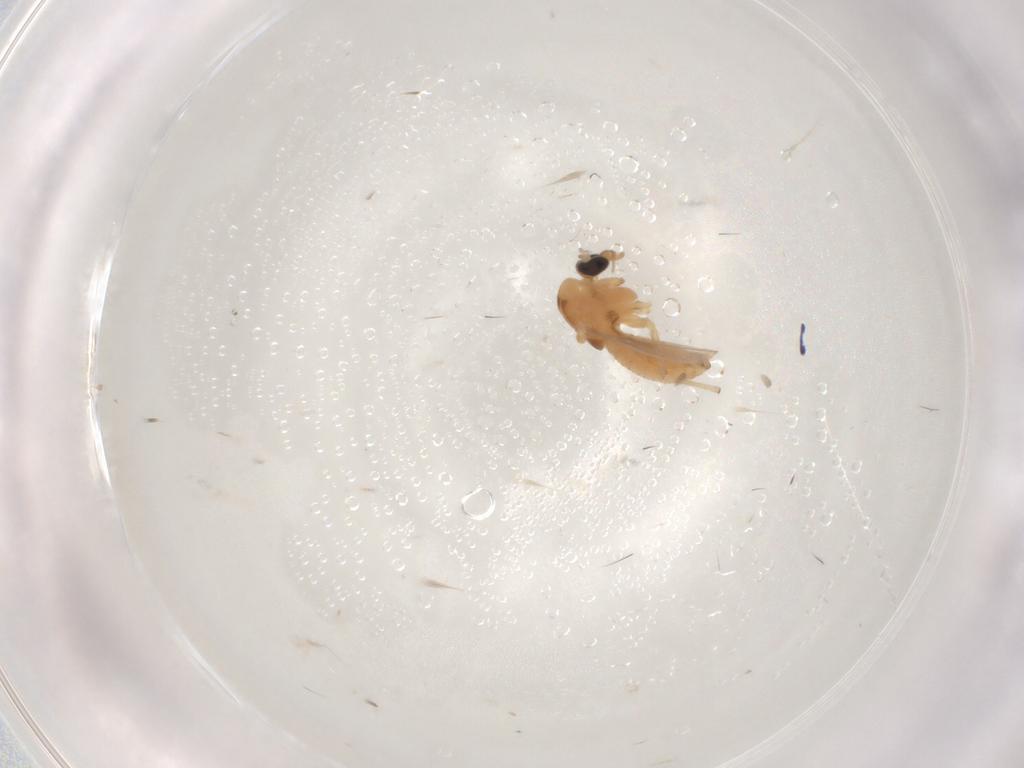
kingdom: Animalia
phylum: Arthropoda
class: Insecta
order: Diptera
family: Chironomidae
